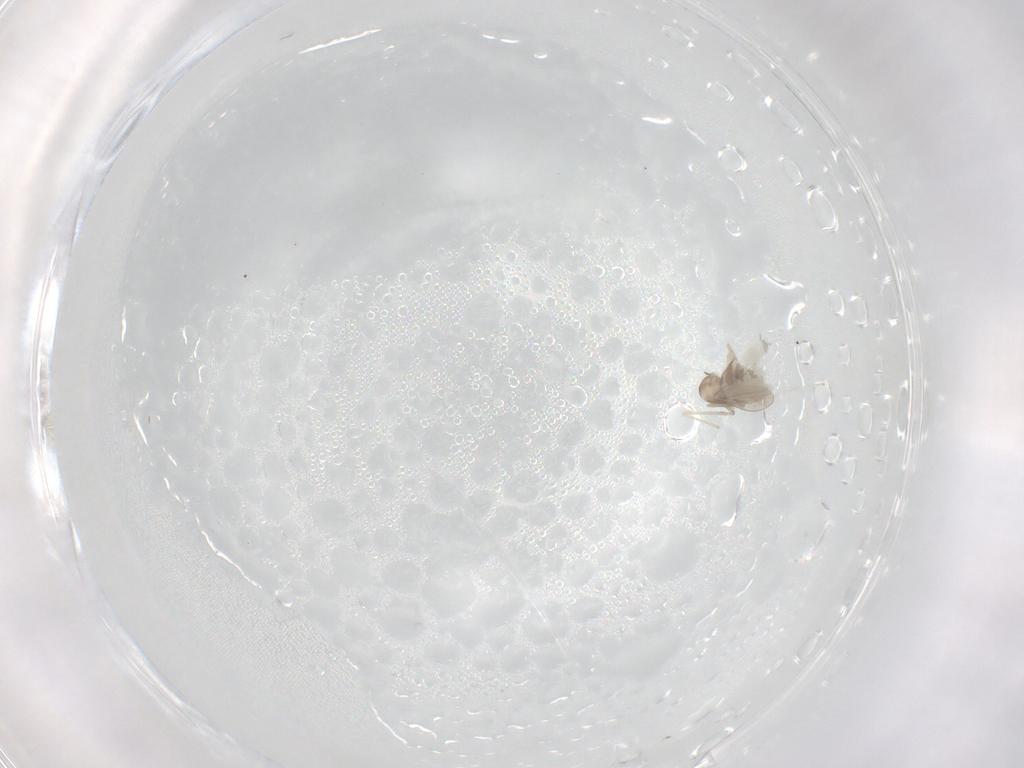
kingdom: Animalia
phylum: Arthropoda
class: Insecta
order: Diptera
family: Cecidomyiidae
